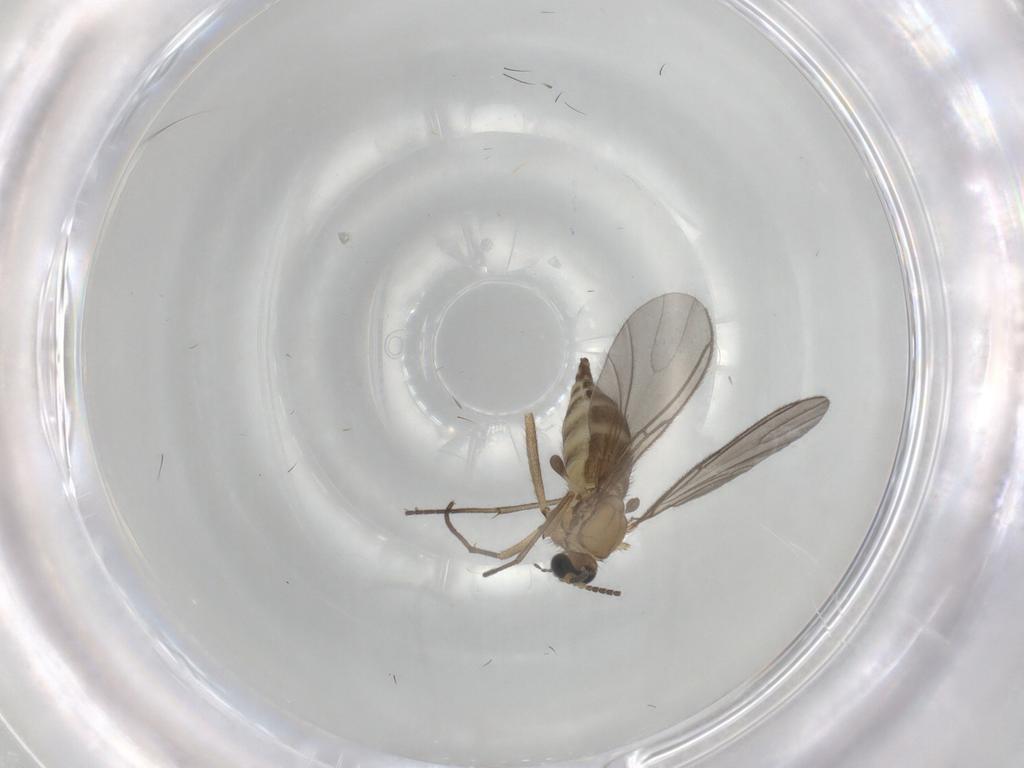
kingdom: Animalia
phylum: Arthropoda
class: Insecta
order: Diptera
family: Sciaridae
